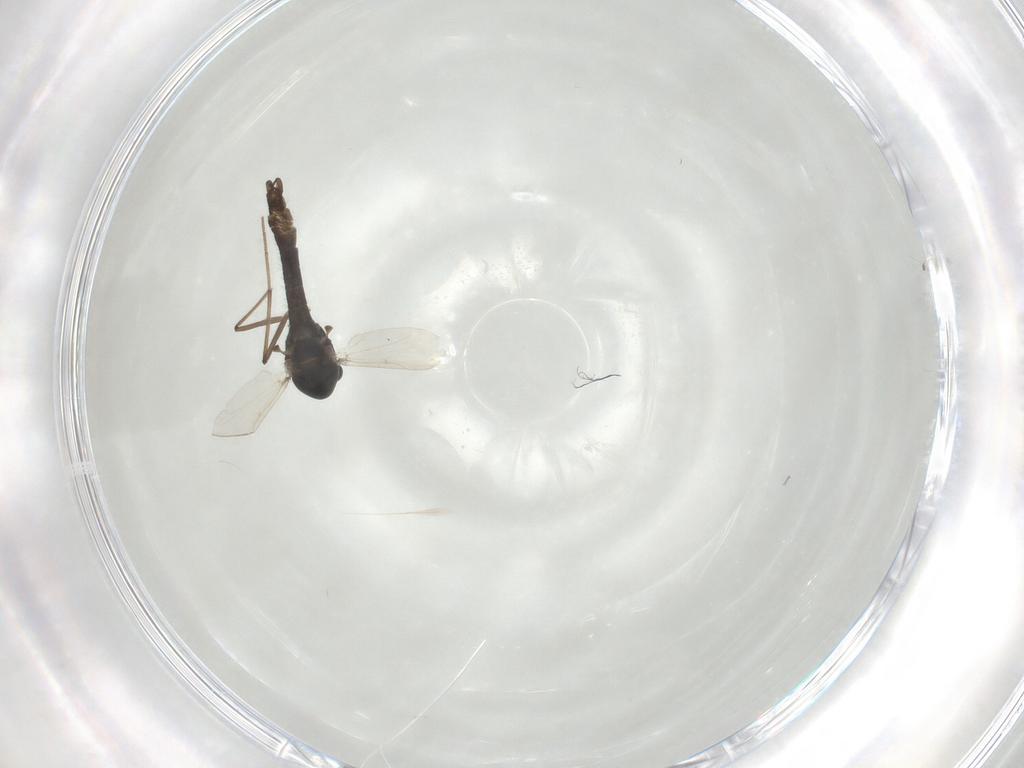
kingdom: Animalia
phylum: Arthropoda
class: Insecta
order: Diptera
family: Chironomidae
